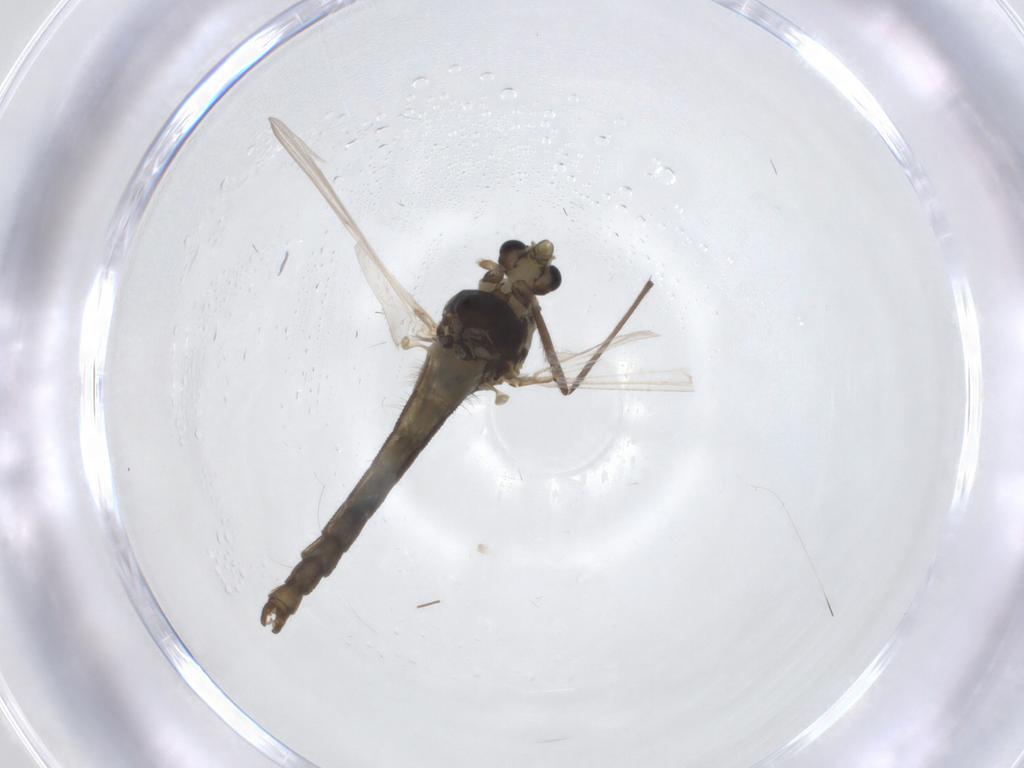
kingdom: Animalia
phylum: Arthropoda
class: Insecta
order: Diptera
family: Chironomidae
